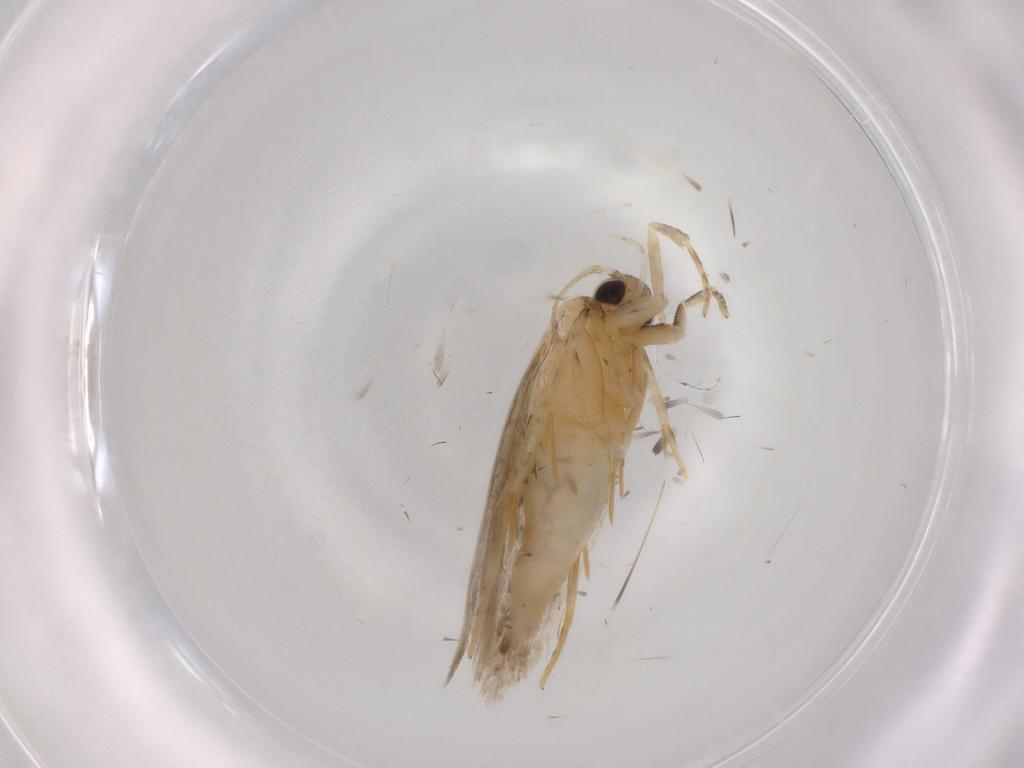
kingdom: Animalia
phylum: Arthropoda
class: Insecta
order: Lepidoptera
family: Autostichidae
